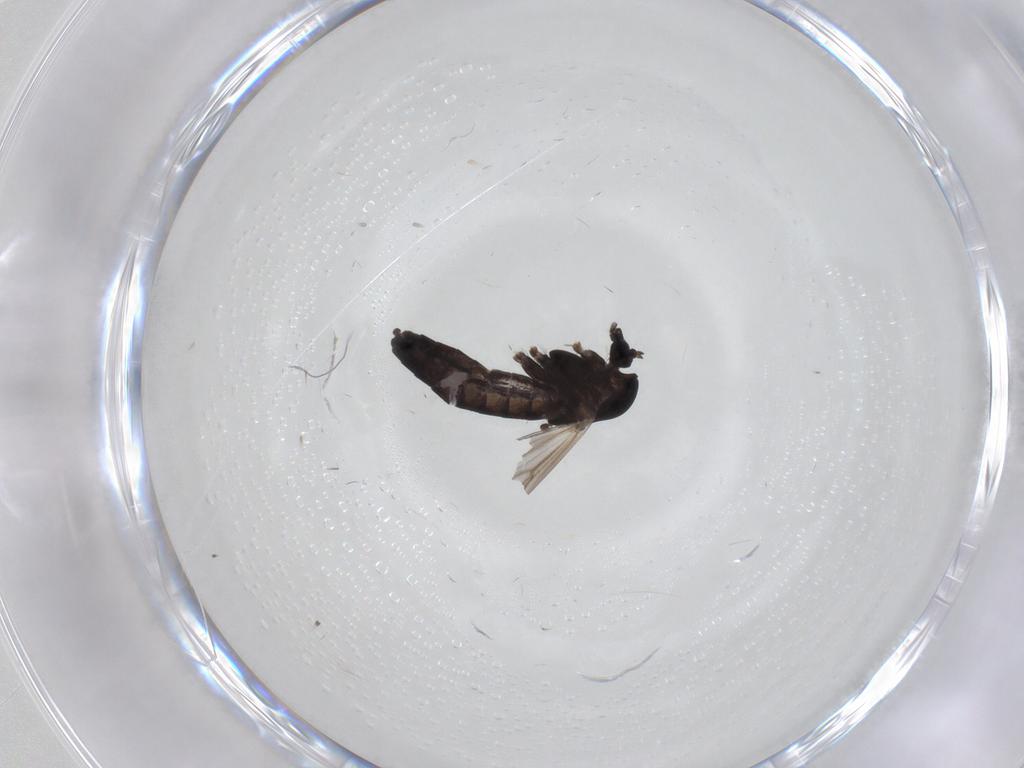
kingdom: Animalia
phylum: Arthropoda
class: Insecta
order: Diptera
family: Chironomidae
